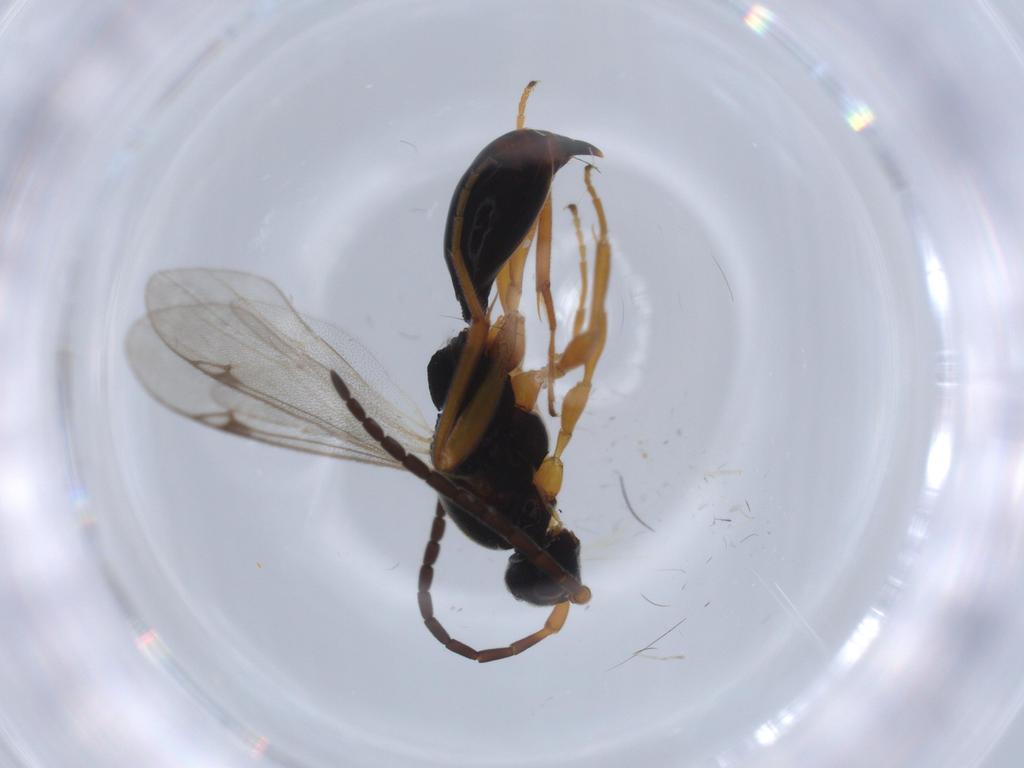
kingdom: Animalia
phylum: Arthropoda
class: Insecta
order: Hymenoptera
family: Proctotrupidae
